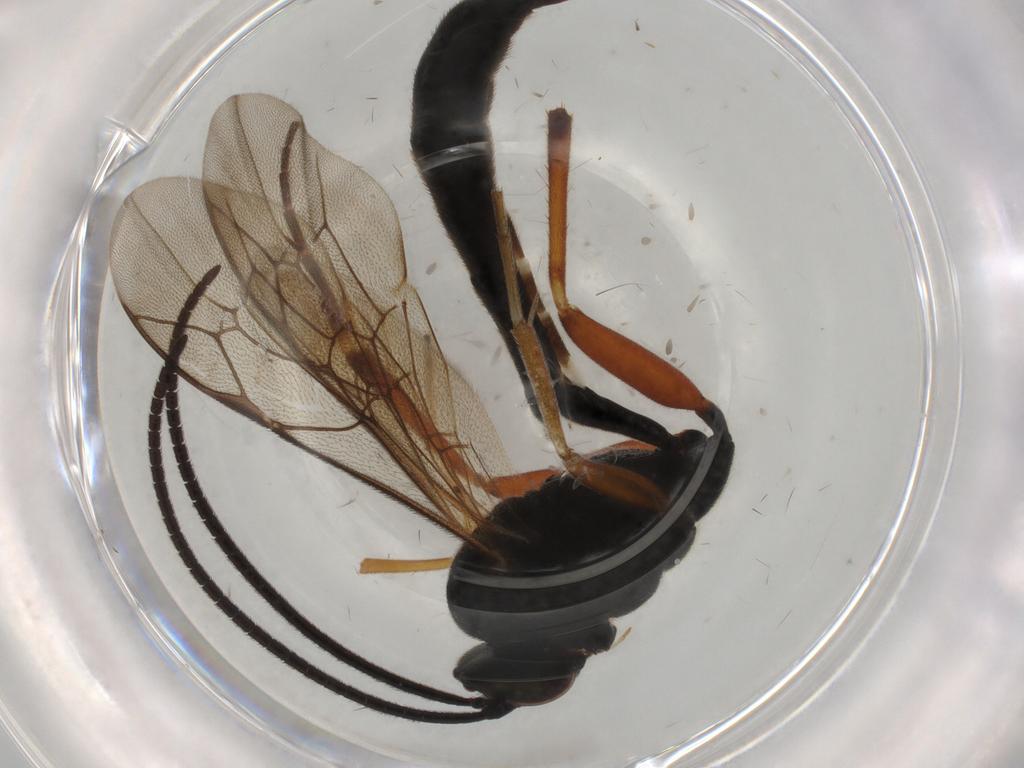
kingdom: Animalia
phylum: Arthropoda
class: Insecta
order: Hymenoptera
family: Ichneumonidae
